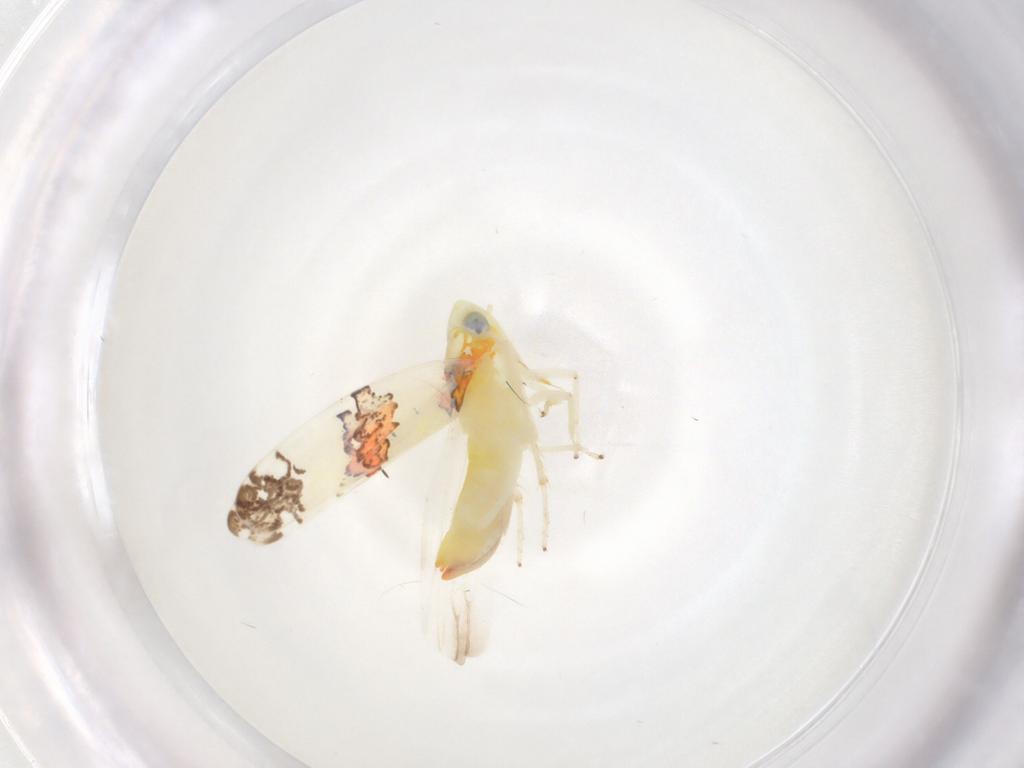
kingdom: Animalia
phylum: Arthropoda
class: Insecta
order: Hemiptera
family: Cicadellidae
